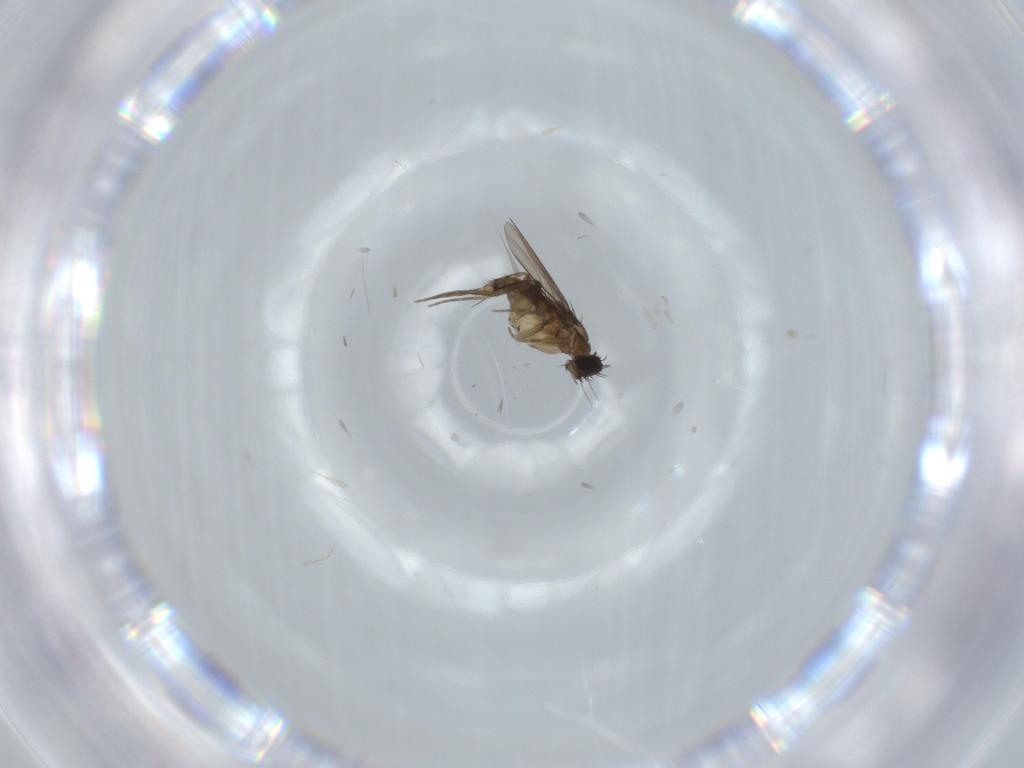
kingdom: Animalia
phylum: Arthropoda
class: Insecta
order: Diptera
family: Phoridae
